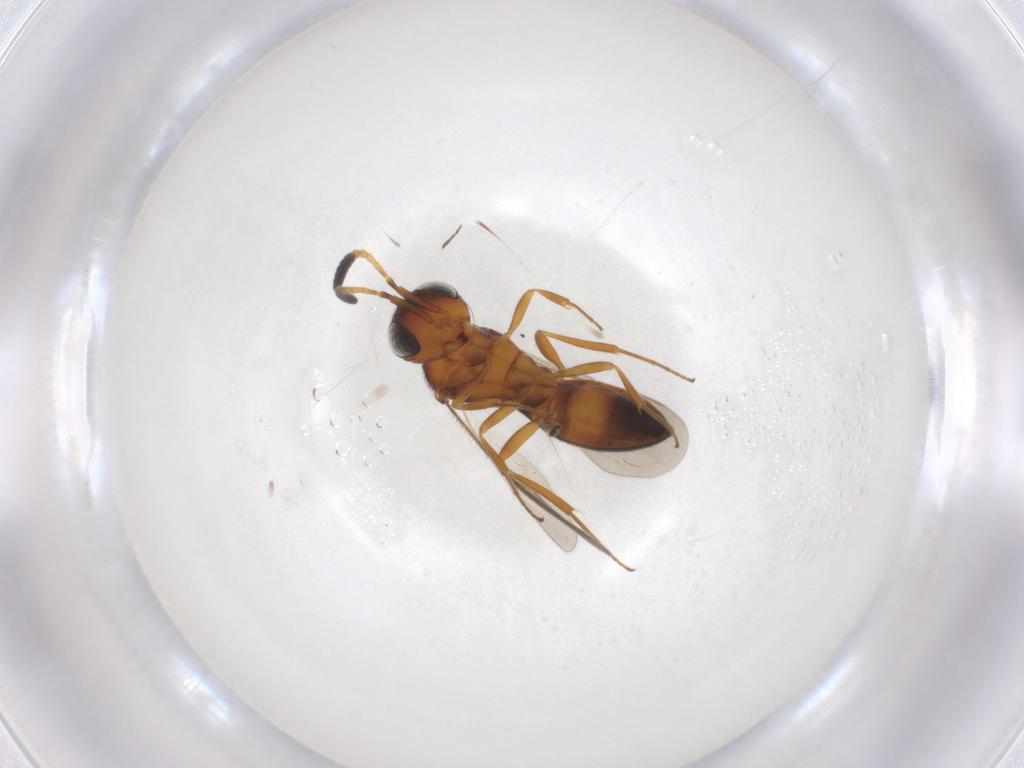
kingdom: Animalia
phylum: Arthropoda
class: Insecta
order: Hymenoptera
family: Scelionidae
